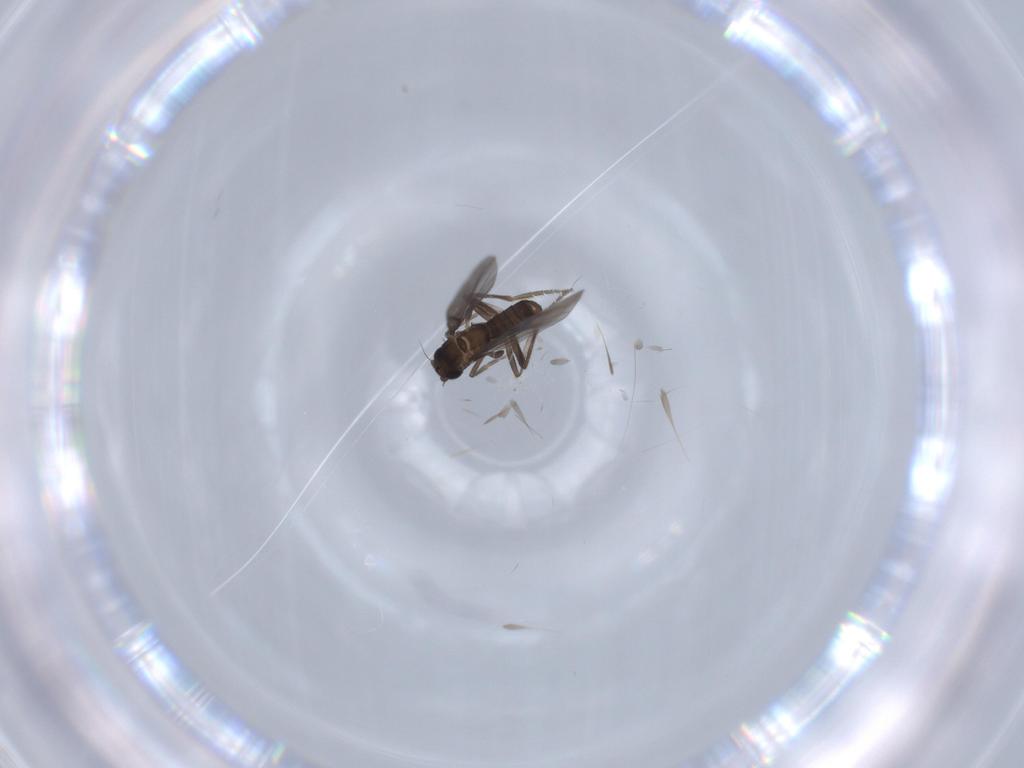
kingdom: Animalia
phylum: Arthropoda
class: Insecta
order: Diptera
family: Phoridae
